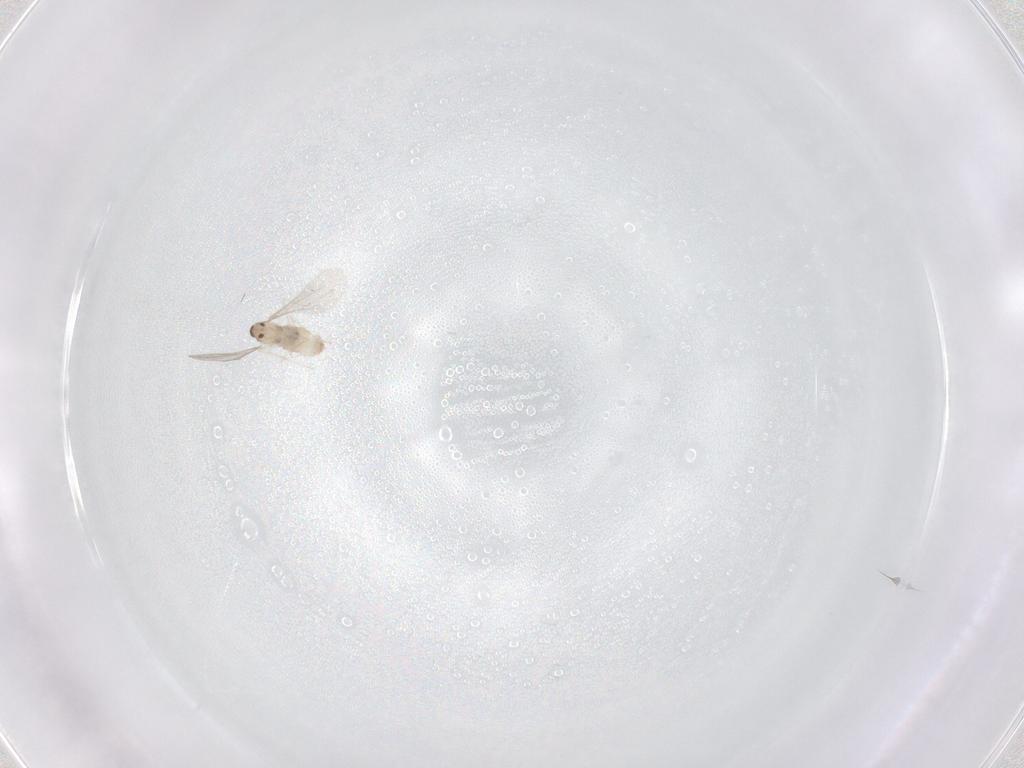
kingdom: Animalia
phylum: Arthropoda
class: Insecta
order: Diptera
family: Cecidomyiidae
